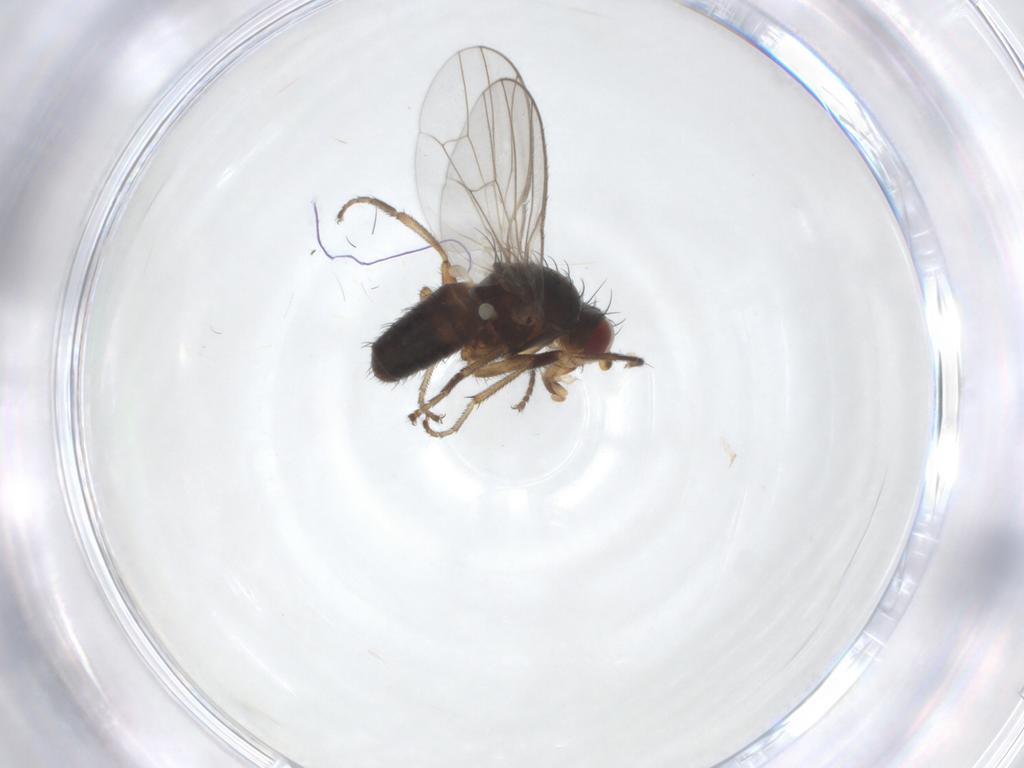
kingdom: Animalia
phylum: Arthropoda
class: Insecta
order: Diptera
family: Heleomyzidae
